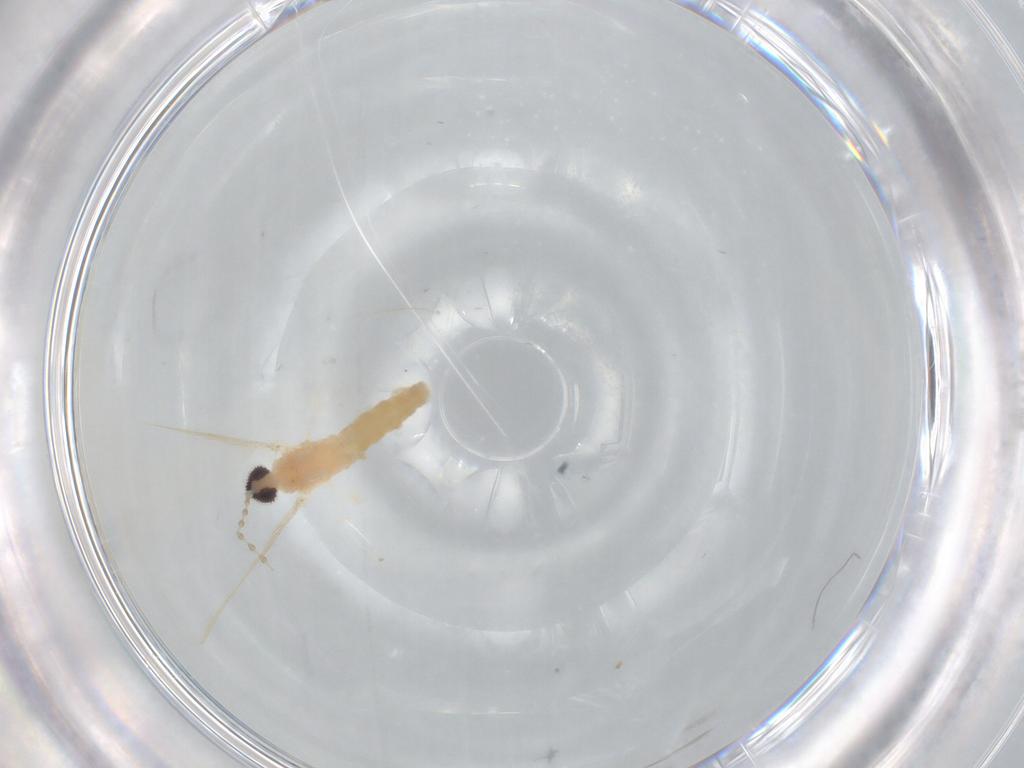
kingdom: Animalia
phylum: Arthropoda
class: Insecta
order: Diptera
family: Cecidomyiidae
